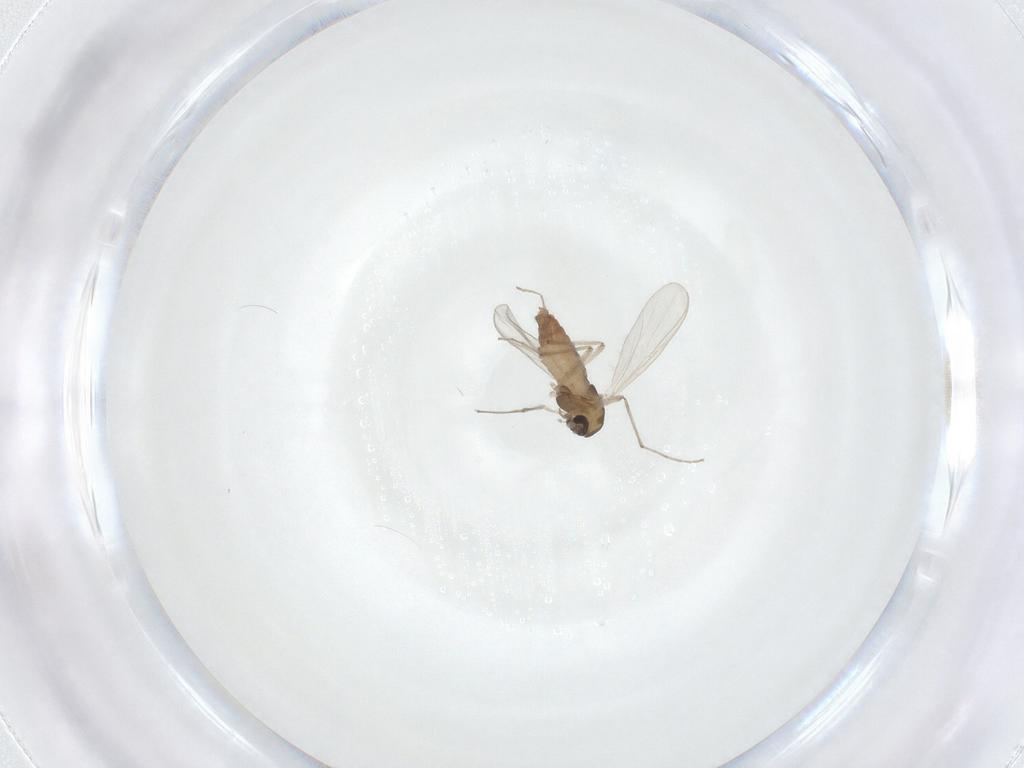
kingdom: Animalia
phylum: Arthropoda
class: Insecta
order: Diptera
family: Chironomidae
